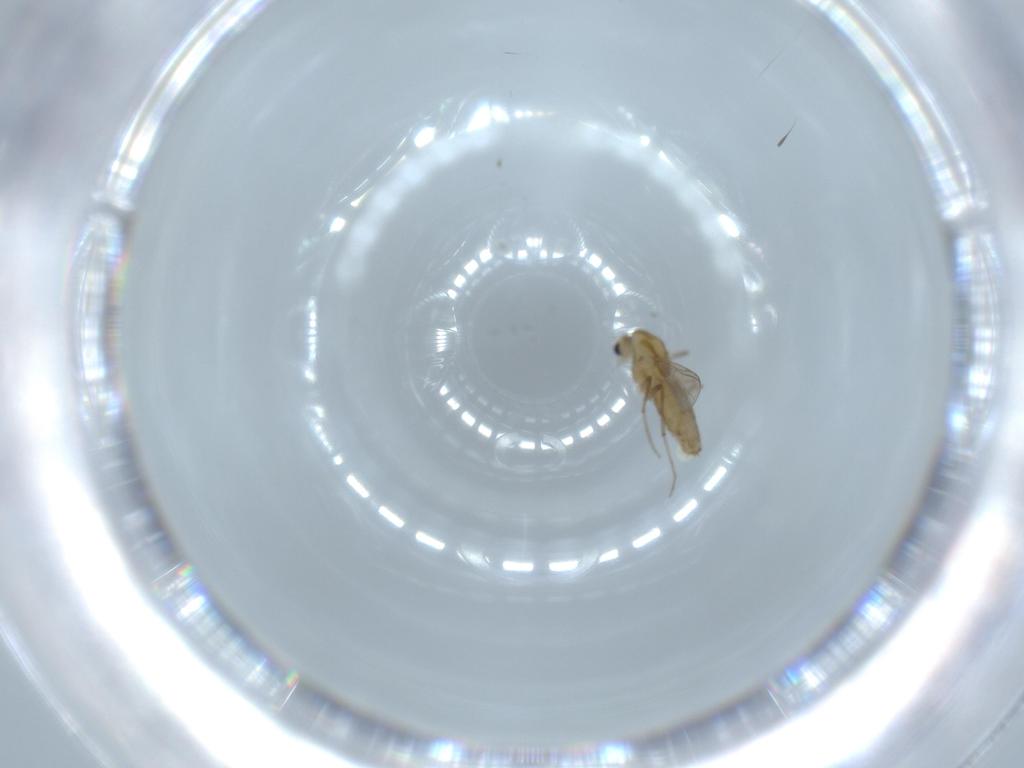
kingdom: Animalia
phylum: Arthropoda
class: Insecta
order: Diptera
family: Chironomidae
